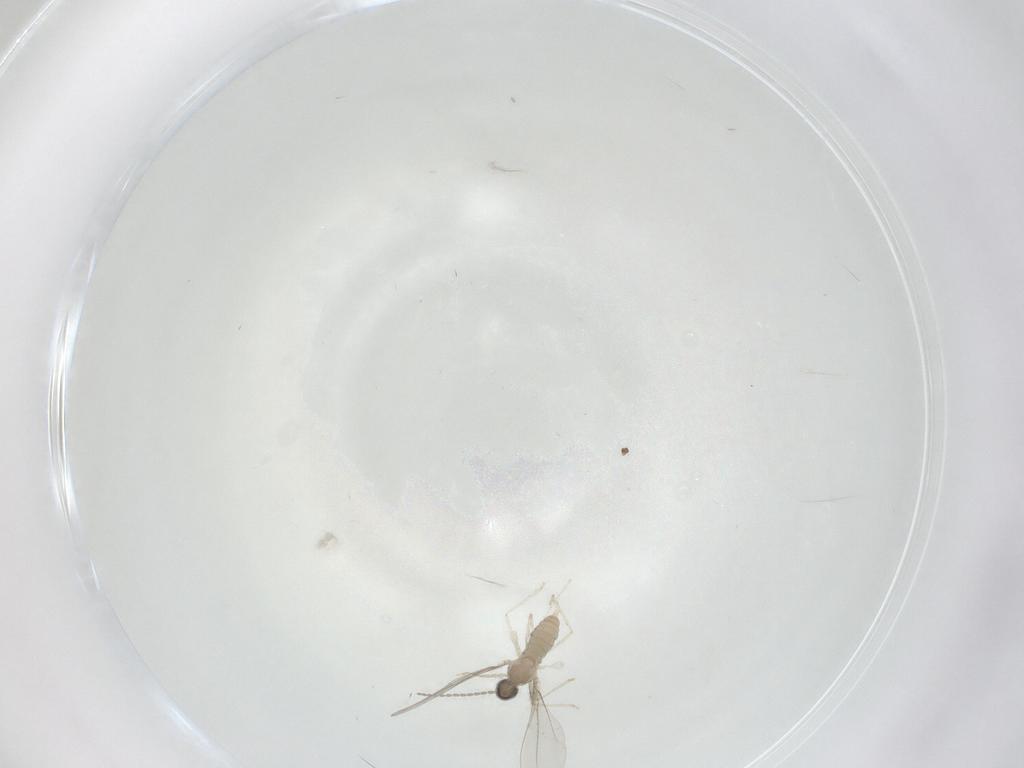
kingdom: Animalia
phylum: Arthropoda
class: Insecta
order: Diptera
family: Cecidomyiidae
